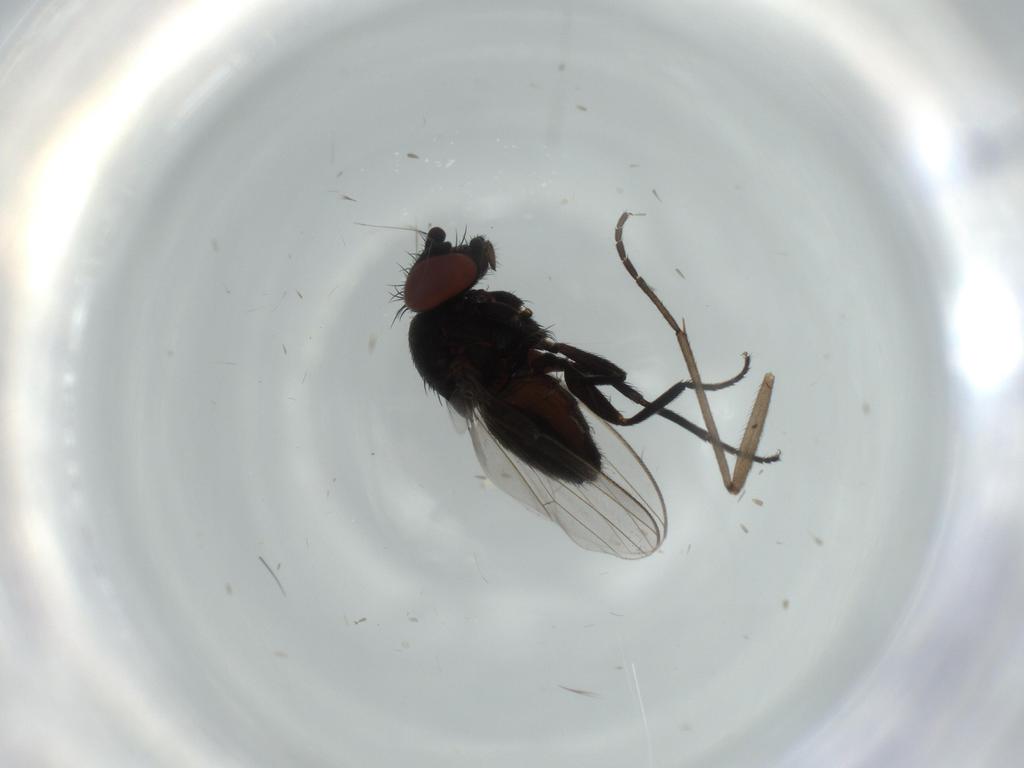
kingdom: Animalia
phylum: Arthropoda
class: Insecta
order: Diptera
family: Milichiidae
